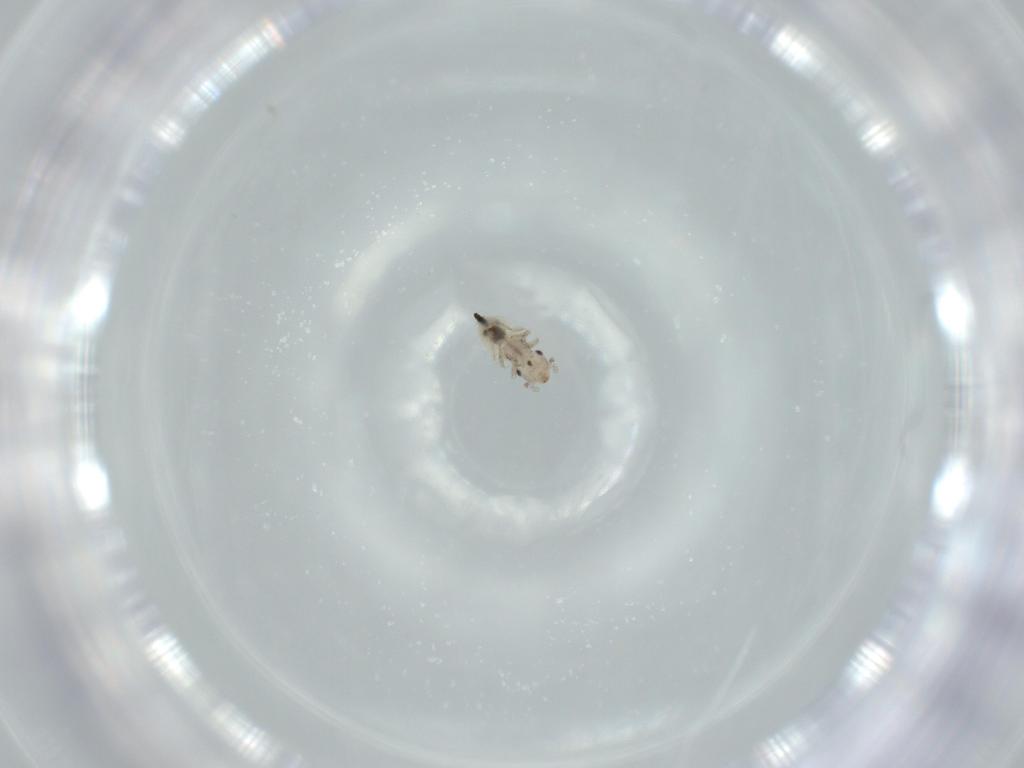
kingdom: Animalia
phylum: Arthropoda
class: Insecta
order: Psocodea
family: Lepidopsocidae
